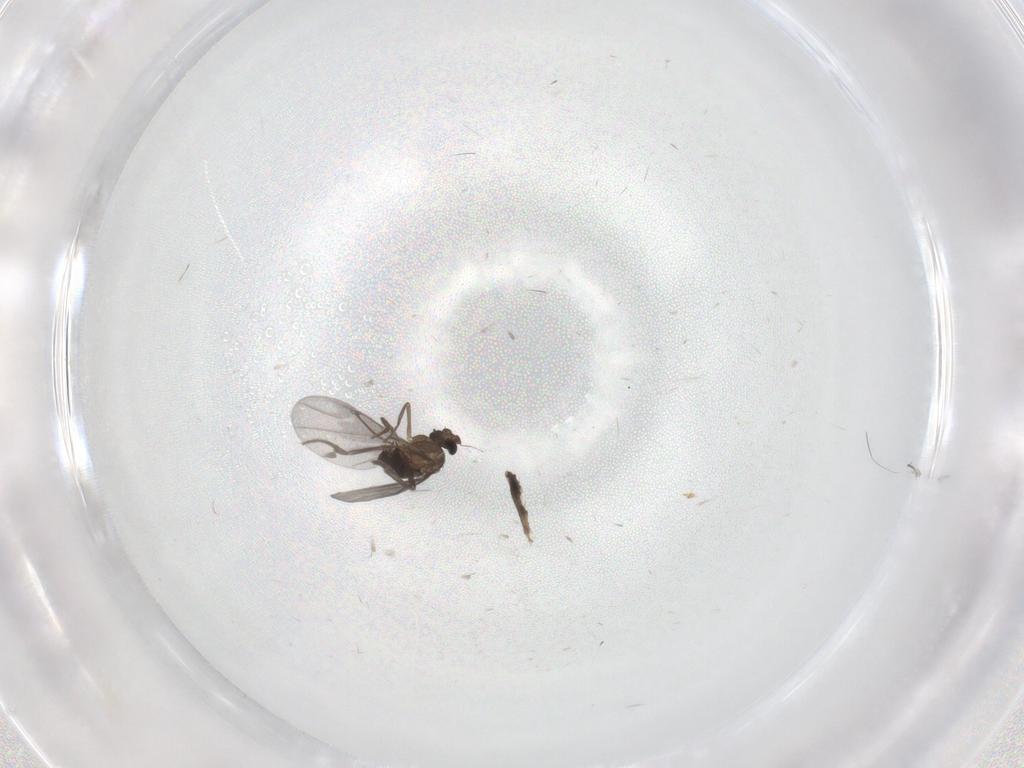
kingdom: Animalia
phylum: Arthropoda
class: Insecta
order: Diptera
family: Phoridae
